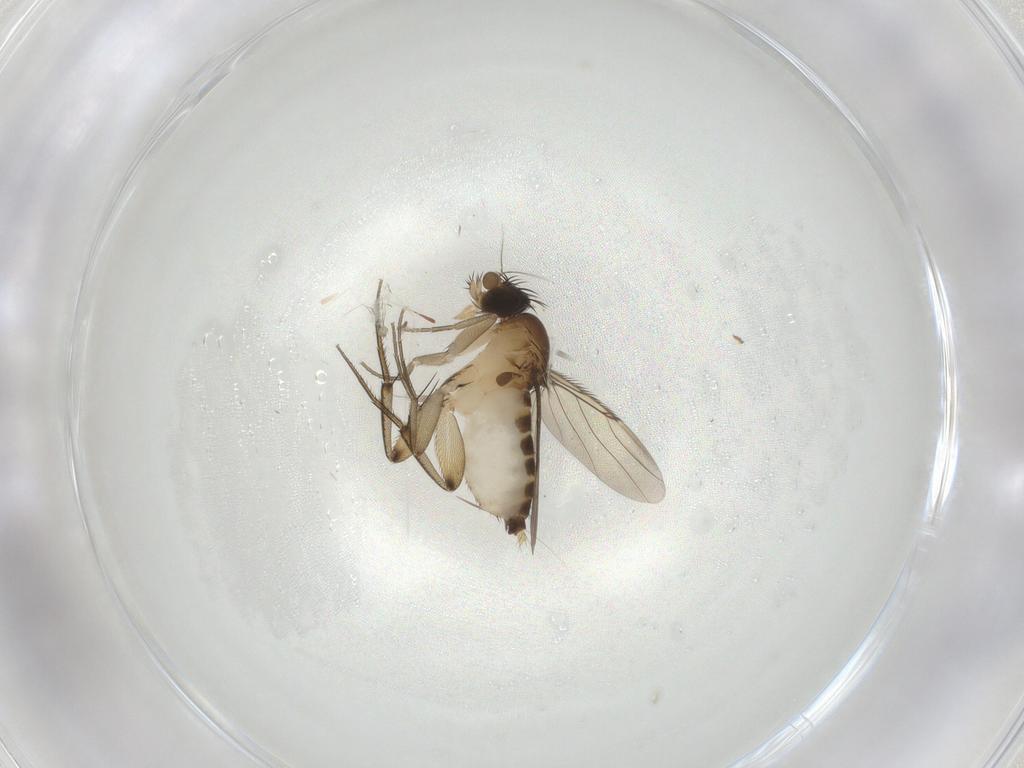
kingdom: Animalia
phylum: Arthropoda
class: Insecta
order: Diptera
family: Phoridae
